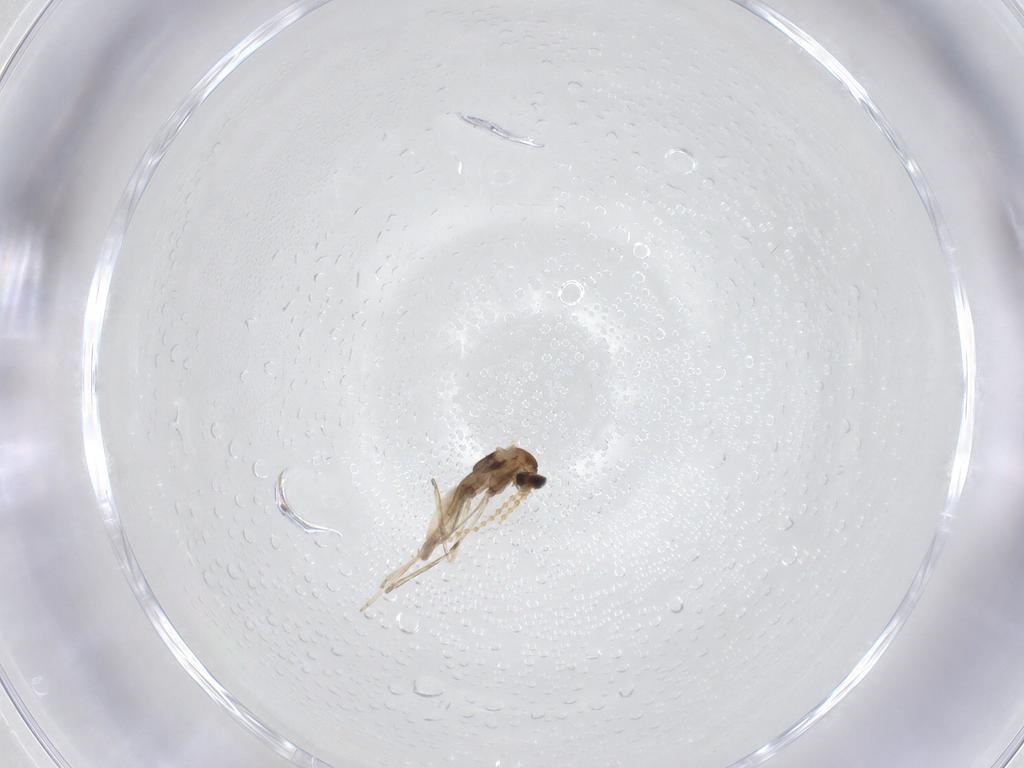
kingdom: Animalia
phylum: Arthropoda
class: Insecta
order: Diptera
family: Cecidomyiidae
